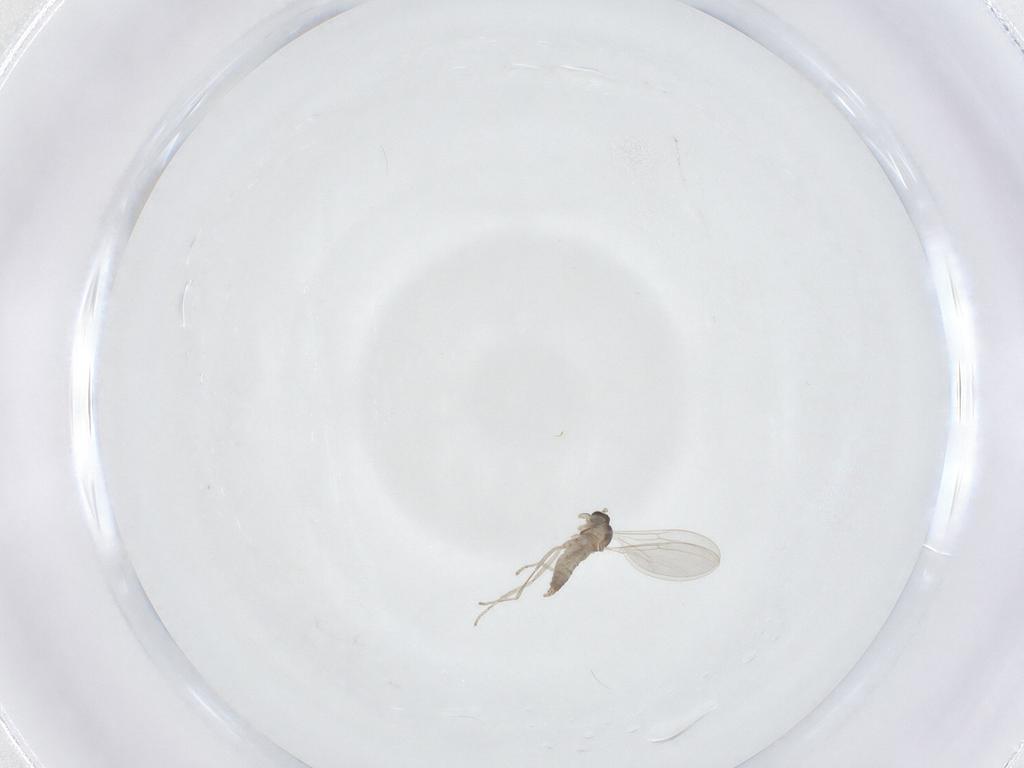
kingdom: Animalia
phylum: Arthropoda
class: Insecta
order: Diptera
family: Cecidomyiidae
